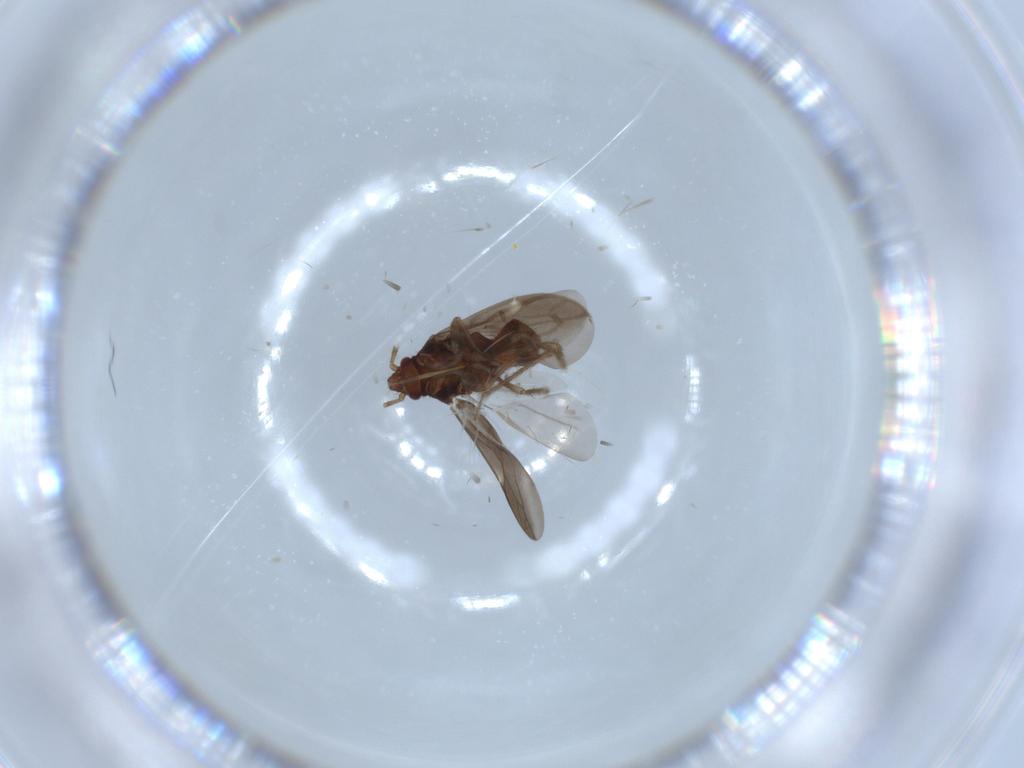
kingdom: Animalia
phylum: Arthropoda
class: Insecta
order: Hemiptera
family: Ceratocombidae
